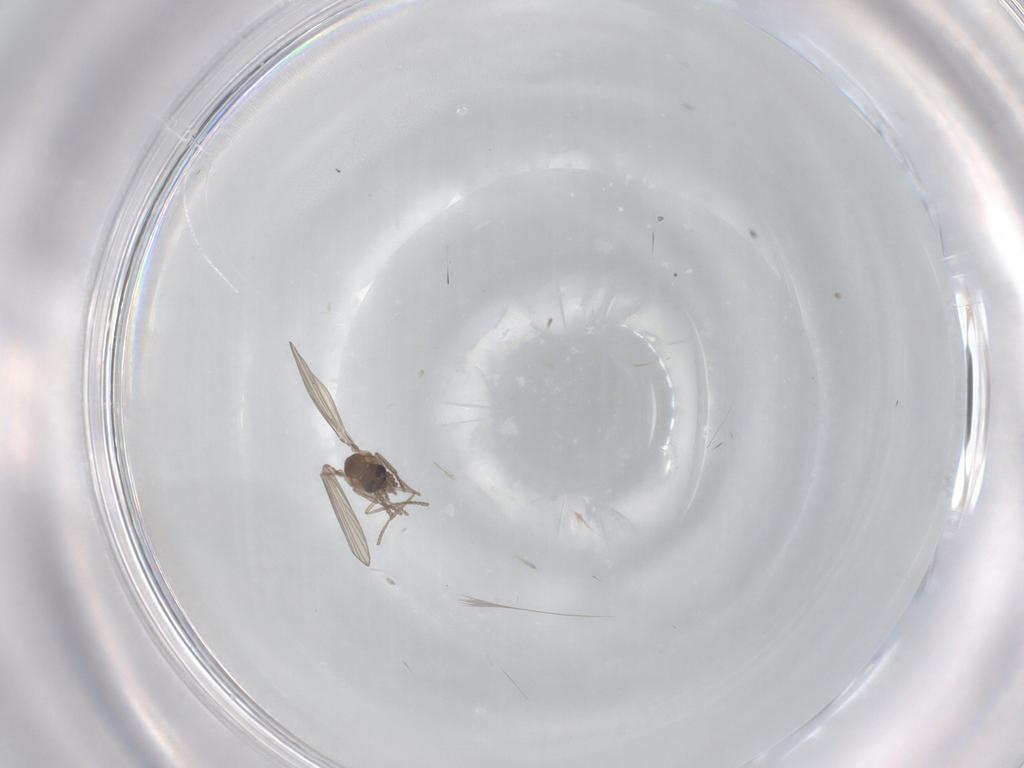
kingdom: Animalia
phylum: Arthropoda
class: Insecta
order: Diptera
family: Psychodidae
